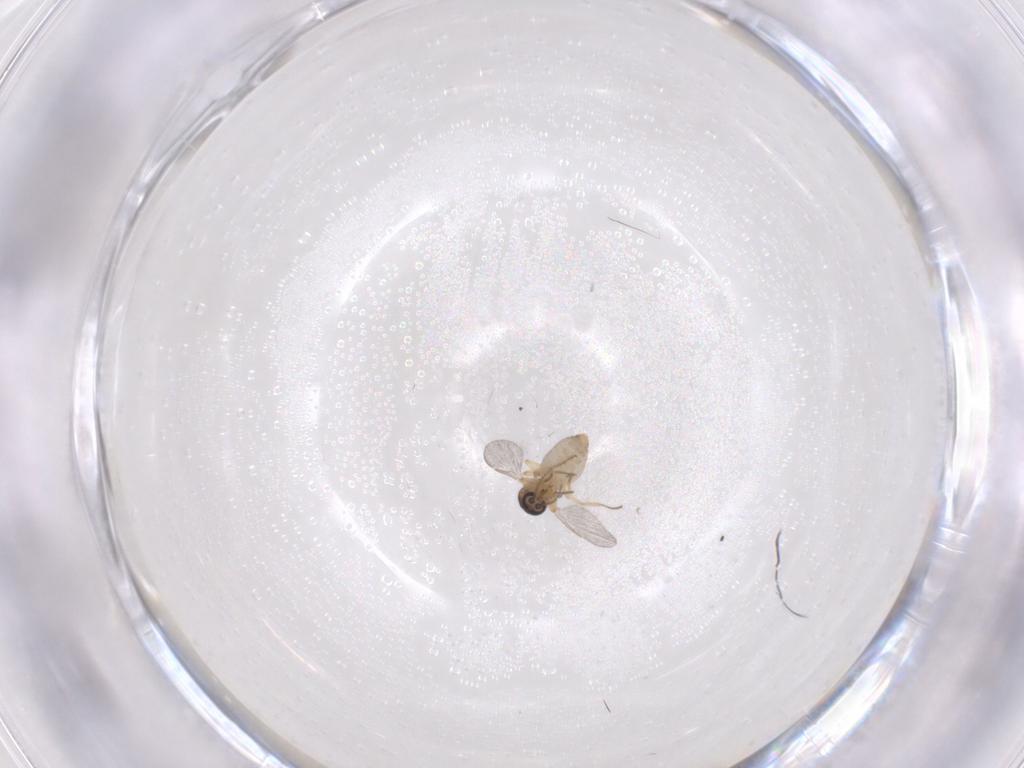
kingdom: Animalia
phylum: Arthropoda
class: Insecta
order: Diptera
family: Ceratopogonidae
